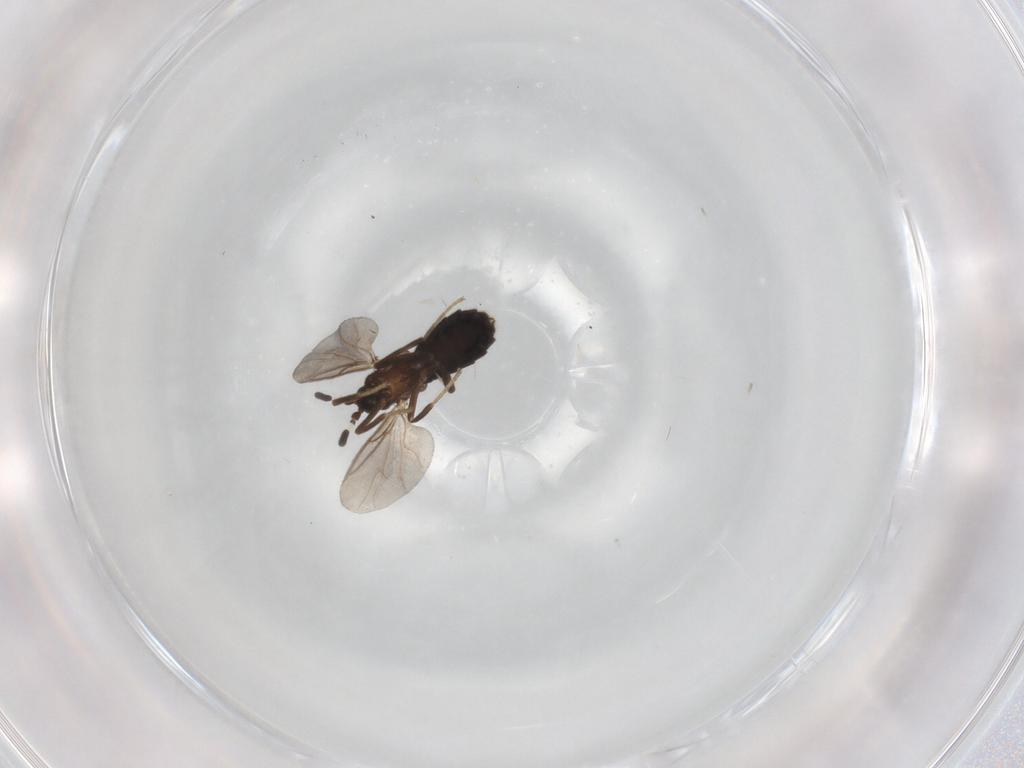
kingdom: Animalia
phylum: Arthropoda
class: Insecta
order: Diptera
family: Scatopsidae
